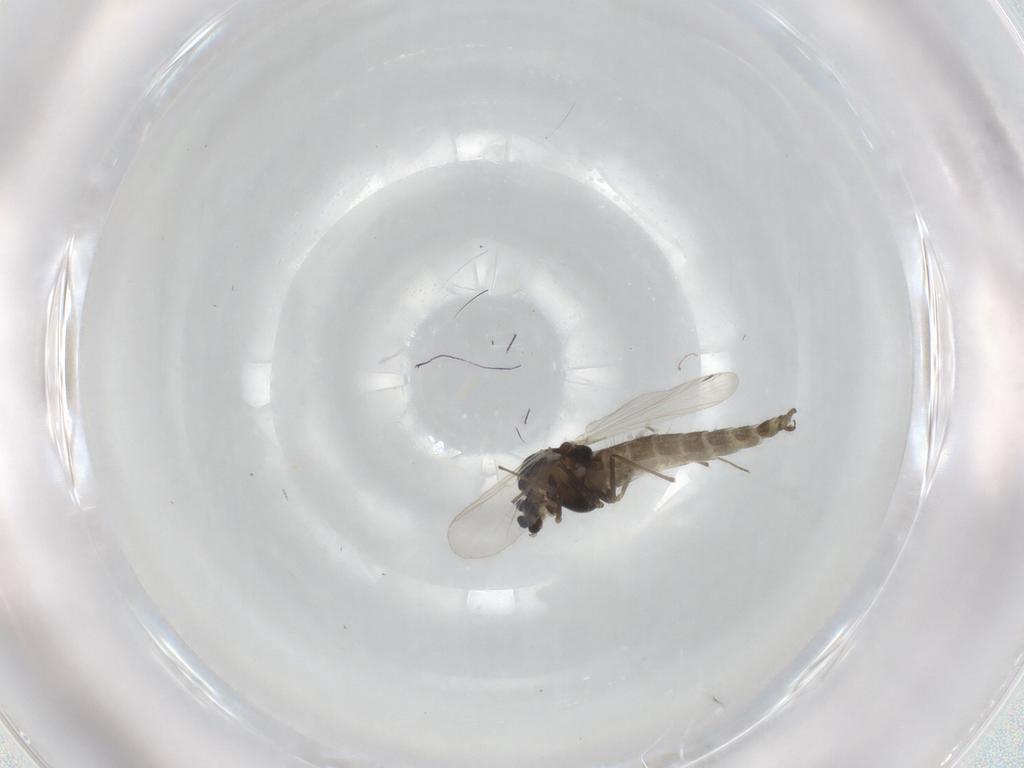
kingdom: Animalia
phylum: Arthropoda
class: Insecta
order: Diptera
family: Chironomidae
